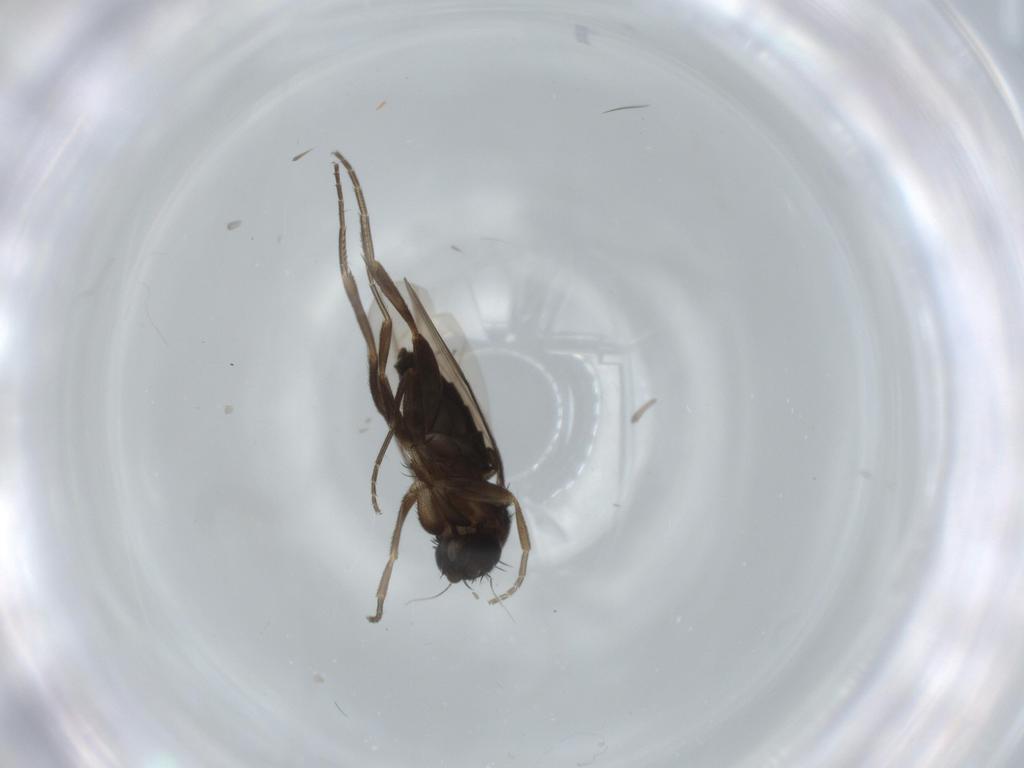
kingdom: Animalia
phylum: Arthropoda
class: Insecta
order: Diptera
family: Phoridae
